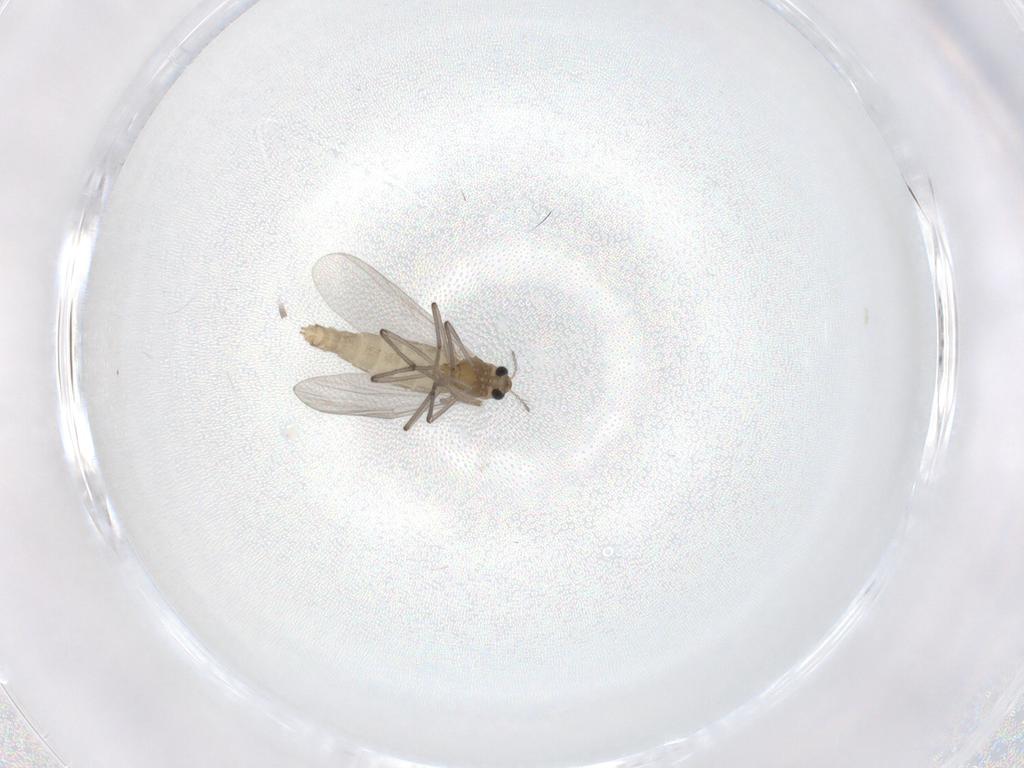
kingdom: Animalia
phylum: Arthropoda
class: Insecta
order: Diptera
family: Chironomidae
